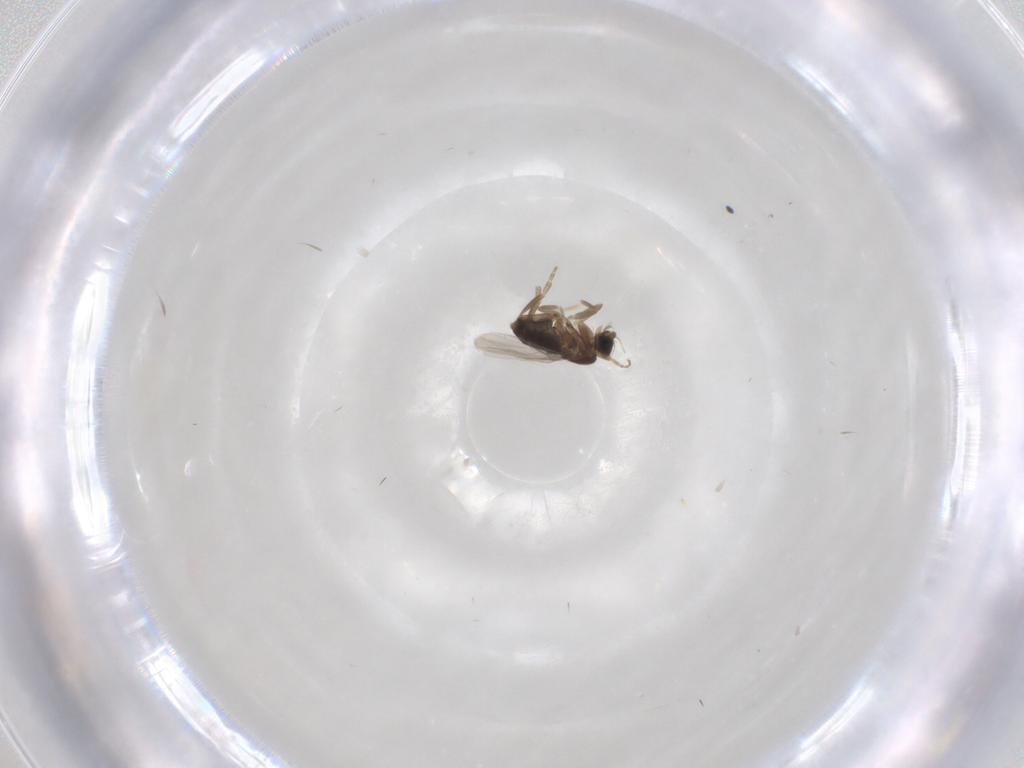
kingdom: Animalia
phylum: Arthropoda
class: Insecta
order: Diptera
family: Phoridae
